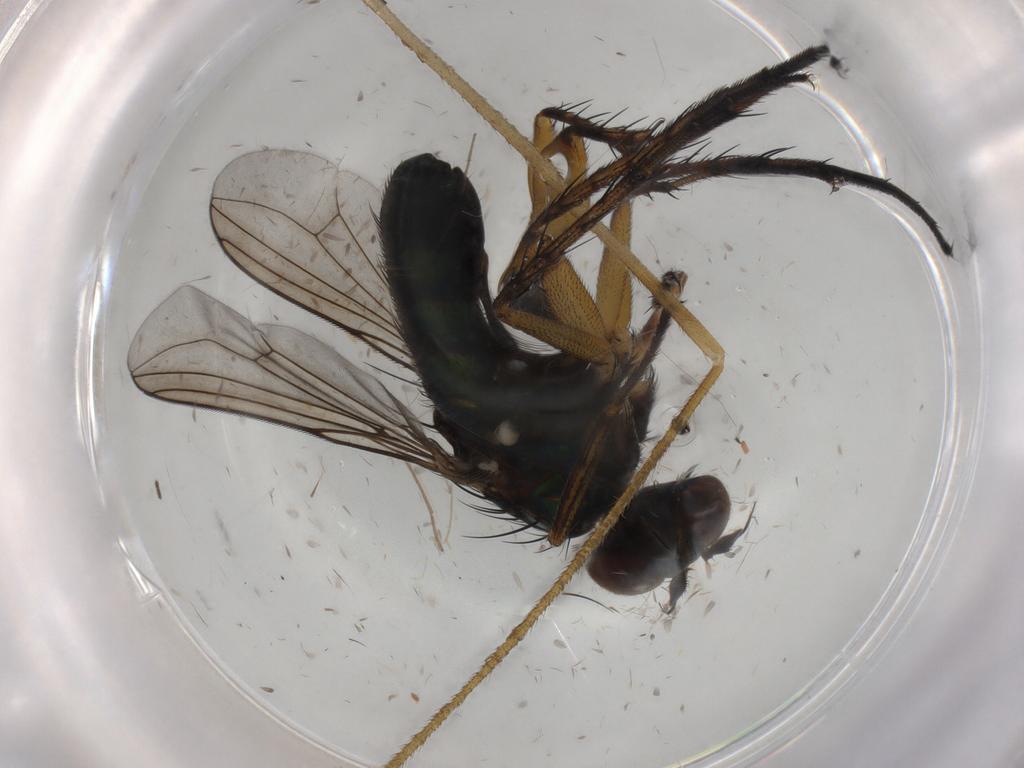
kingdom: Animalia
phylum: Arthropoda
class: Insecta
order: Diptera
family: Dolichopodidae
